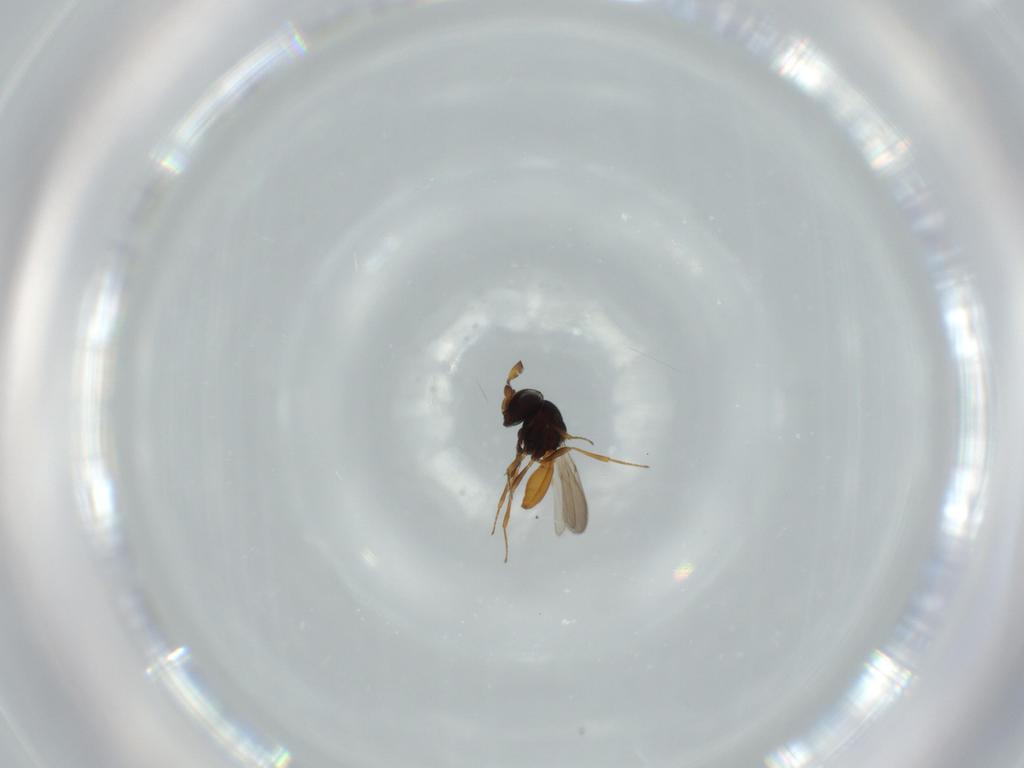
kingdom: Animalia
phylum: Arthropoda
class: Insecta
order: Hymenoptera
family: Scelionidae
